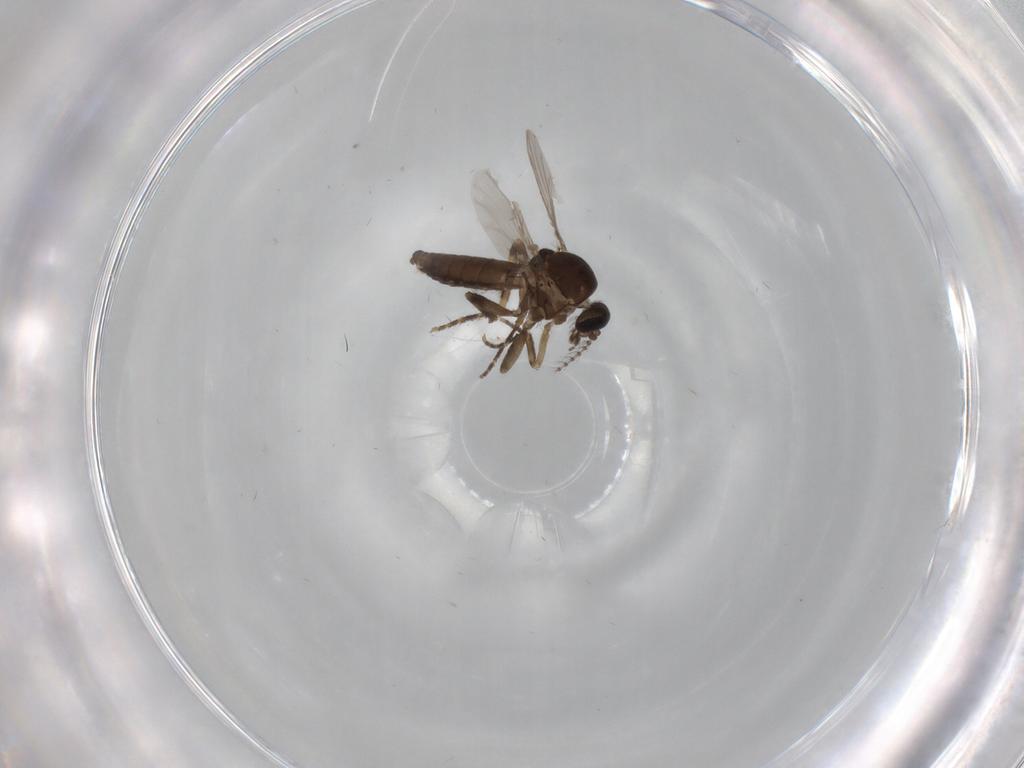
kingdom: Animalia
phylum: Arthropoda
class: Insecta
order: Diptera
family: Ceratopogonidae
